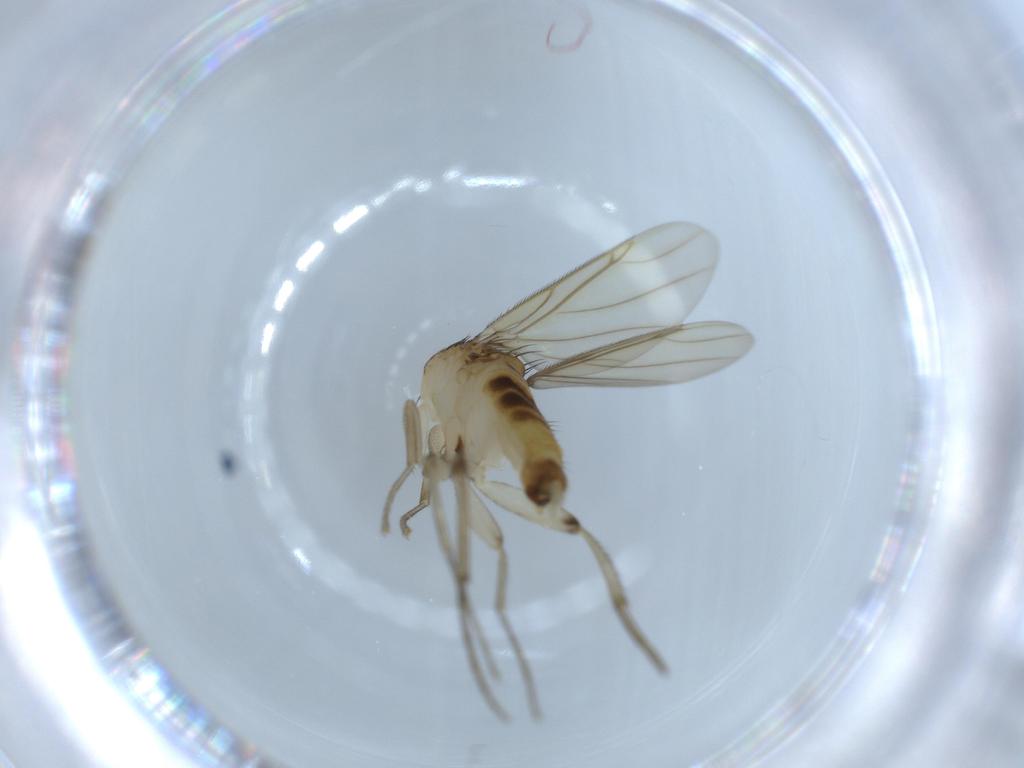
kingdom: Animalia
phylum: Arthropoda
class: Insecta
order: Diptera
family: Phoridae
